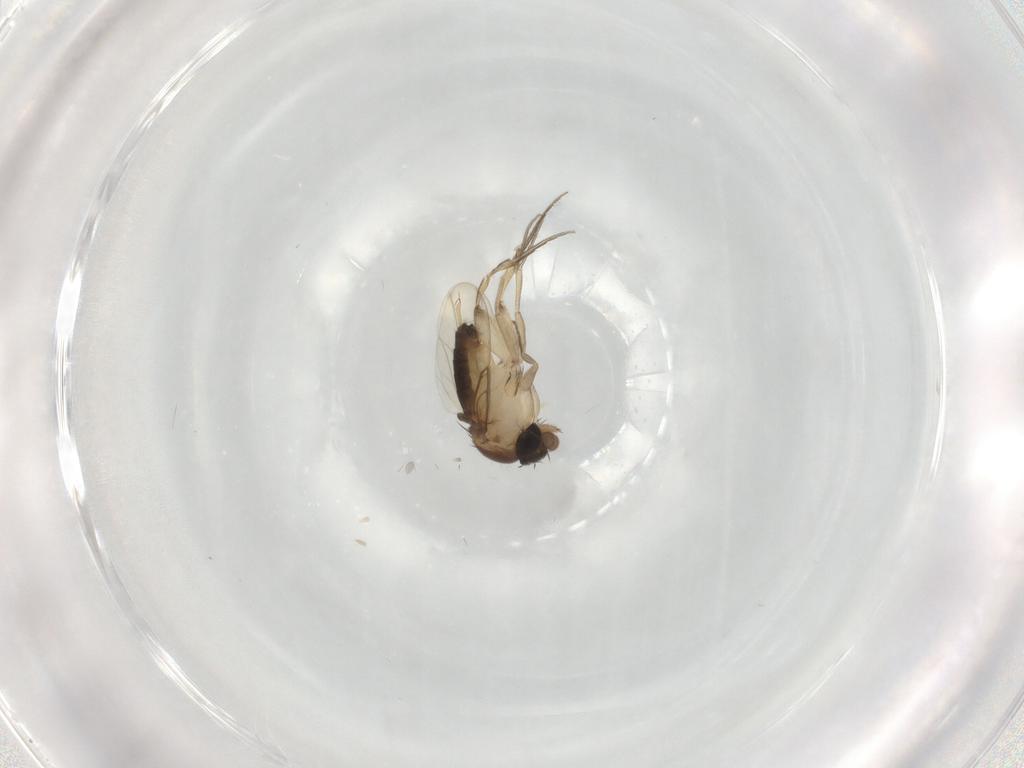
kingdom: Animalia
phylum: Arthropoda
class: Insecta
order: Diptera
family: Phoridae
